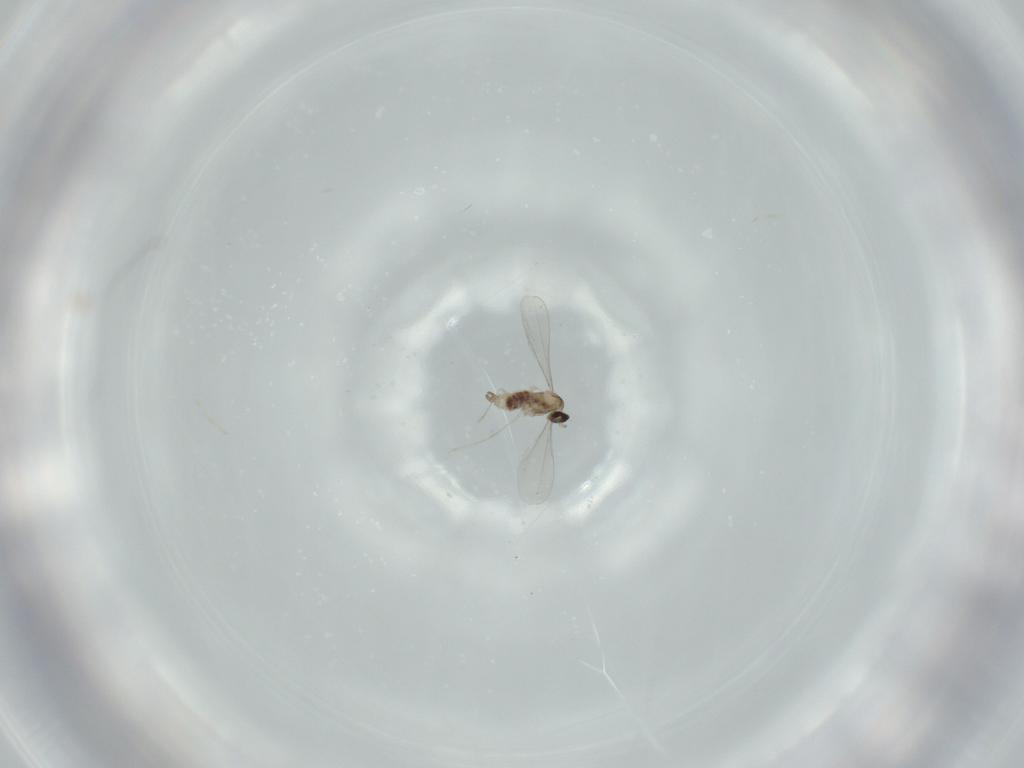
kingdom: Animalia
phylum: Arthropoda
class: Insecta
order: Diptera
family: Cecidomyiidae
